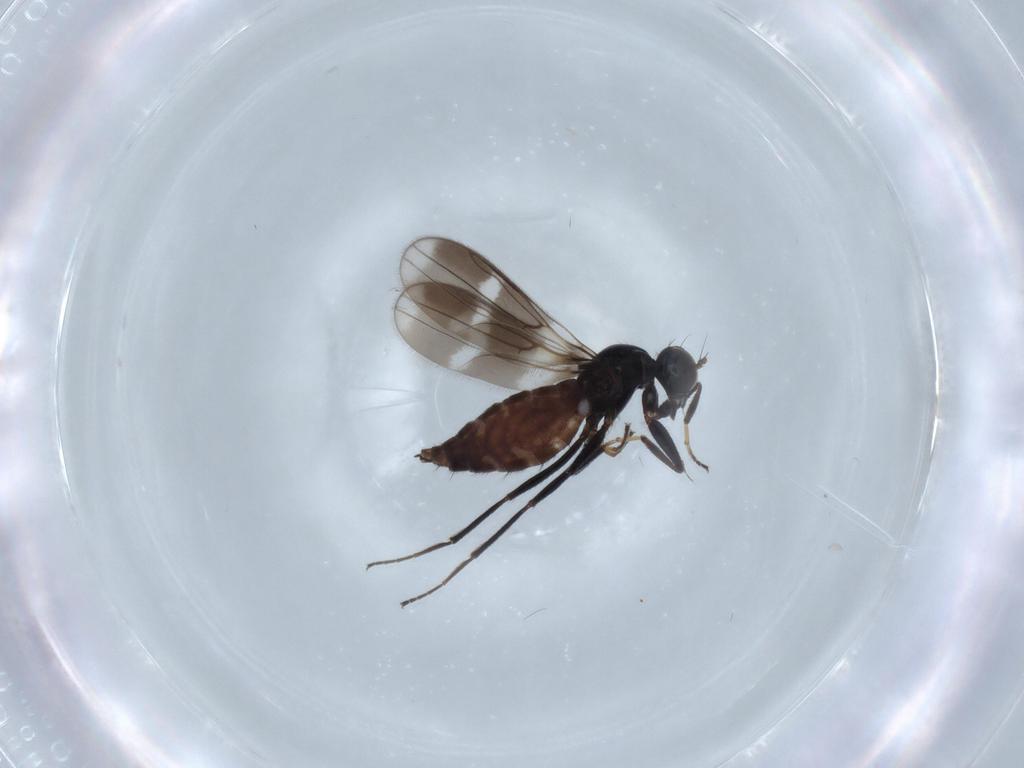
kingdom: Animalia
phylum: Arthropoda
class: Insecta
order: Diptera
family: Hybotidae
